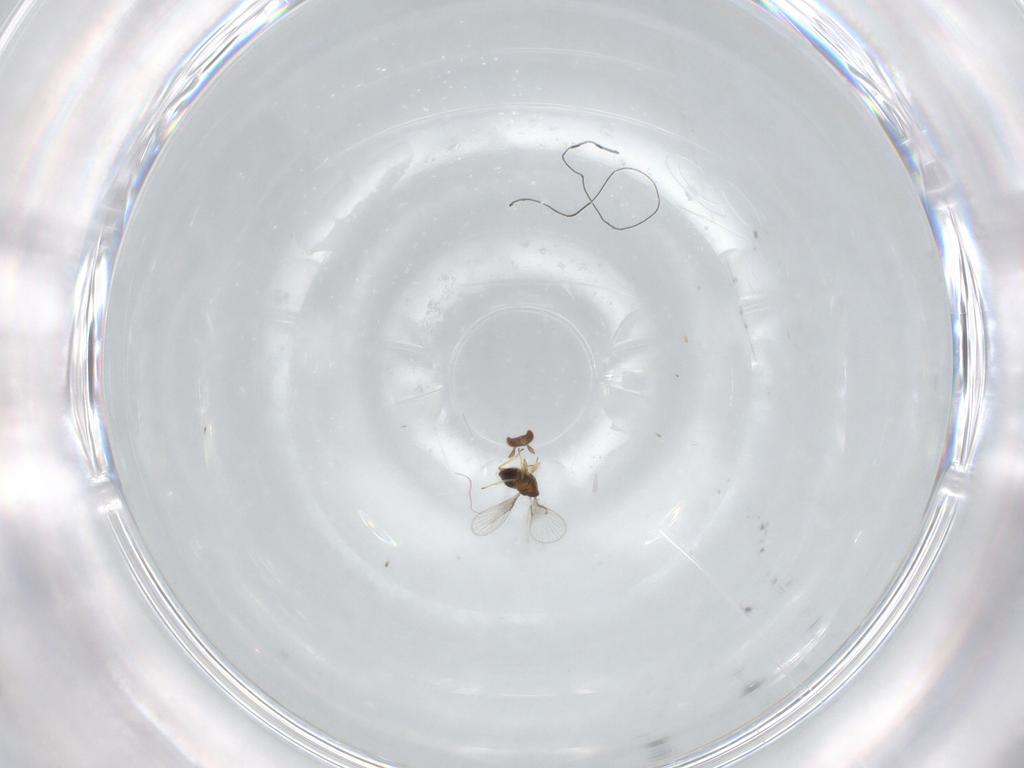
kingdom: Animalia
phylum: Arthropoda
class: Insecta
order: Hymenoptera
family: Trichogrammatidae
